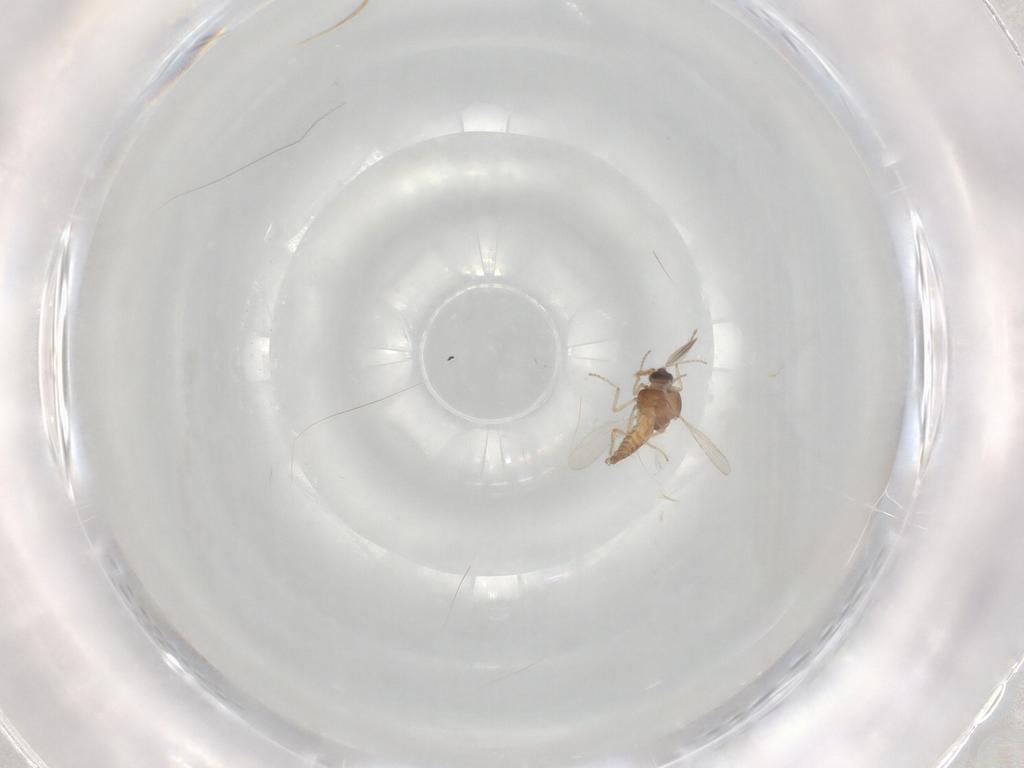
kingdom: Animalia
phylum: Arthropoda
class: Insecta
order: Diptera
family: Ceratopogonidae
